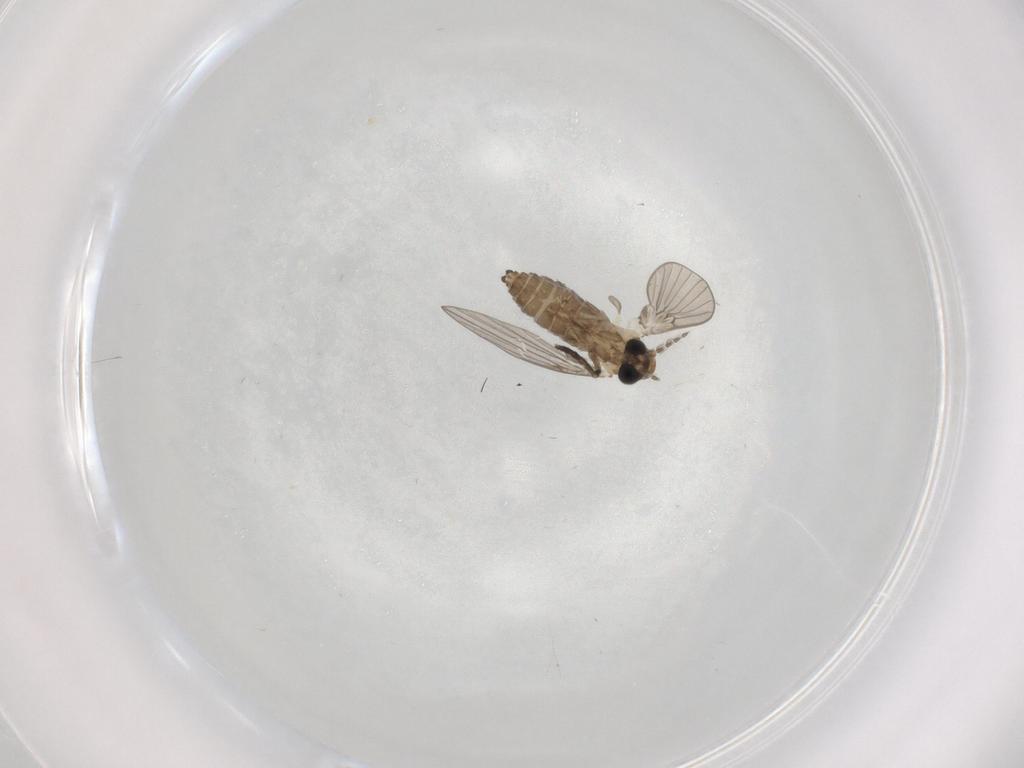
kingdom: Animalia
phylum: Arthropoda
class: Insecta
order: Diptera
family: Psychodidae
